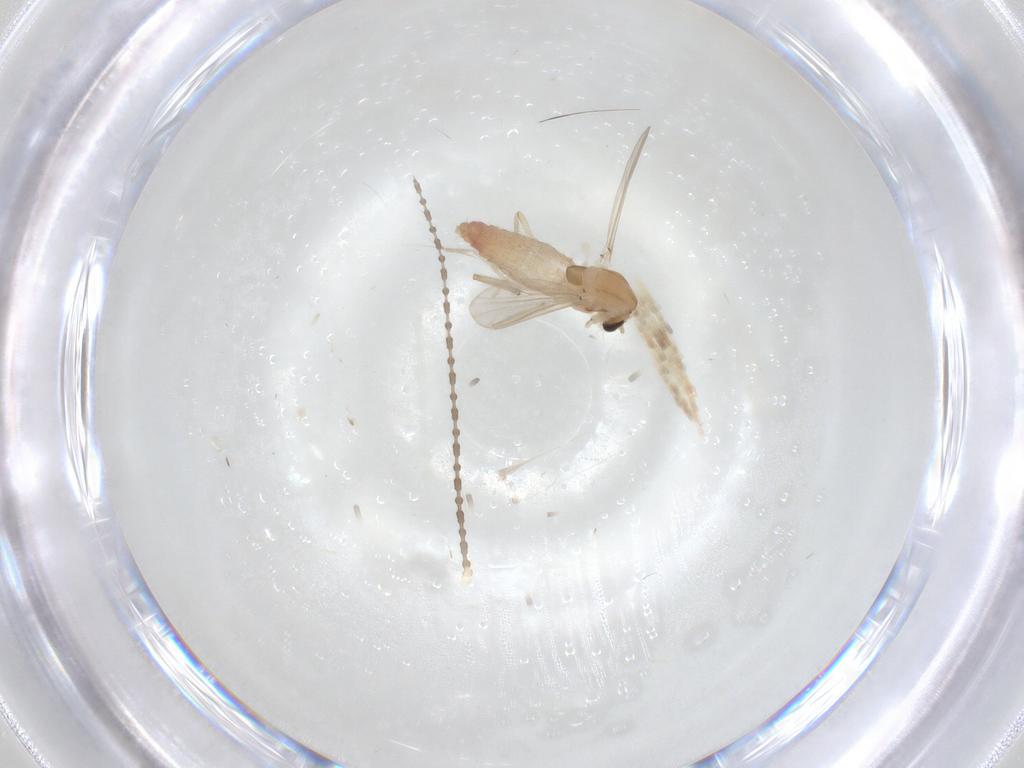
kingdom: Animalia
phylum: Arthropoda
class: Insecta
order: Diptera
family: Chironomidae
